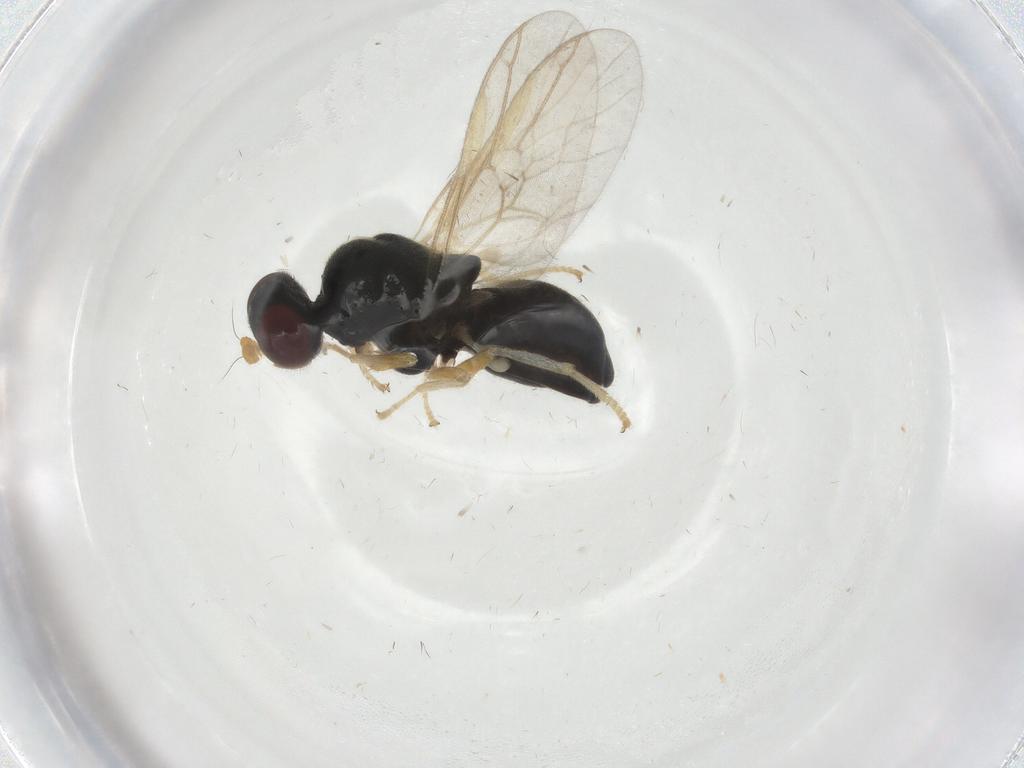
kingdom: Animalia
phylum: Arthropoda
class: Insecta
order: Diptera
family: Stratiomyidae
